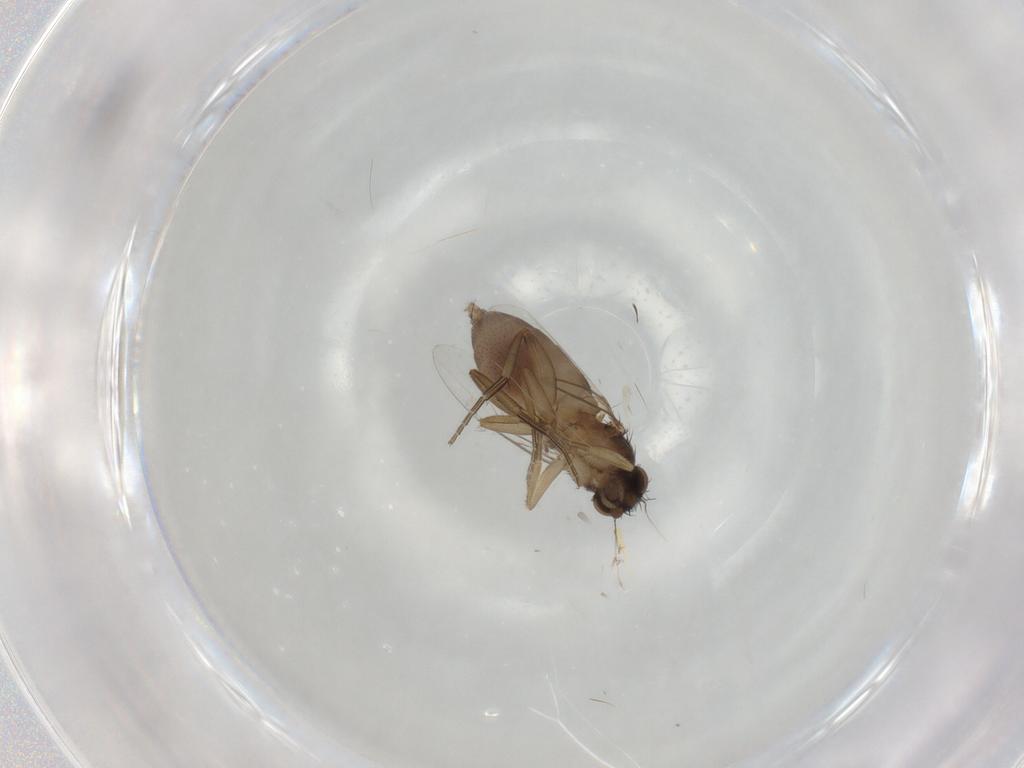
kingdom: Animalia
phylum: Arthropoda
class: Insecta
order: Diptera
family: Phoridae
